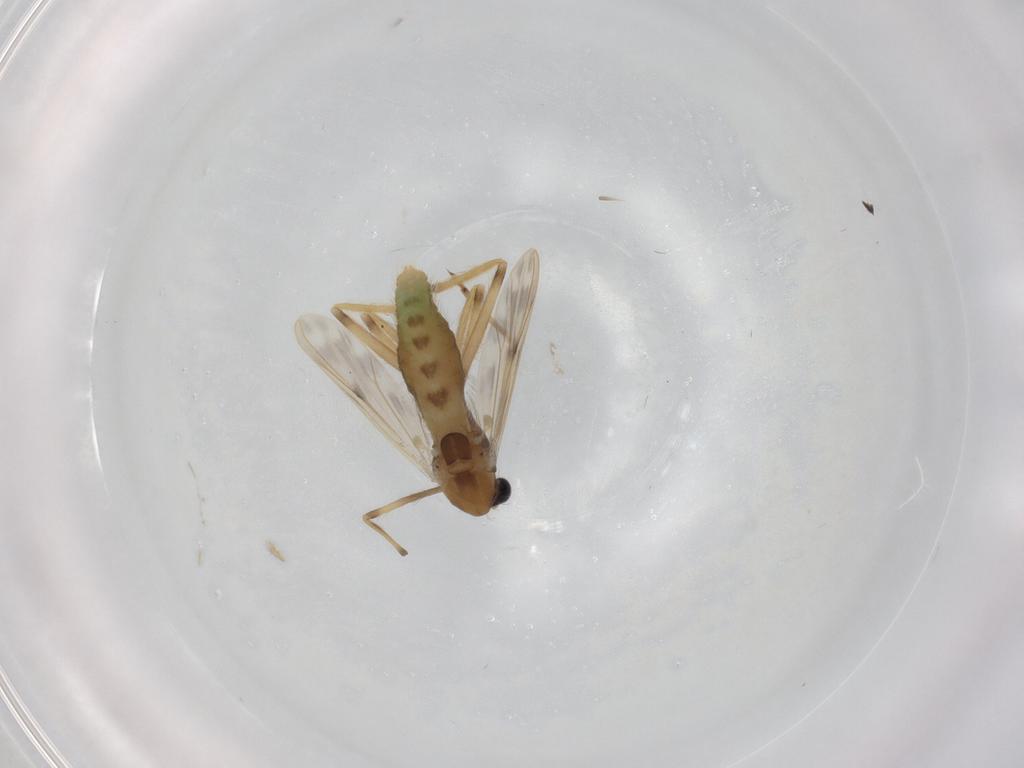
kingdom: Animalia
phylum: Arthropoda
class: Insecta
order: Diptera
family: Chironomidae
